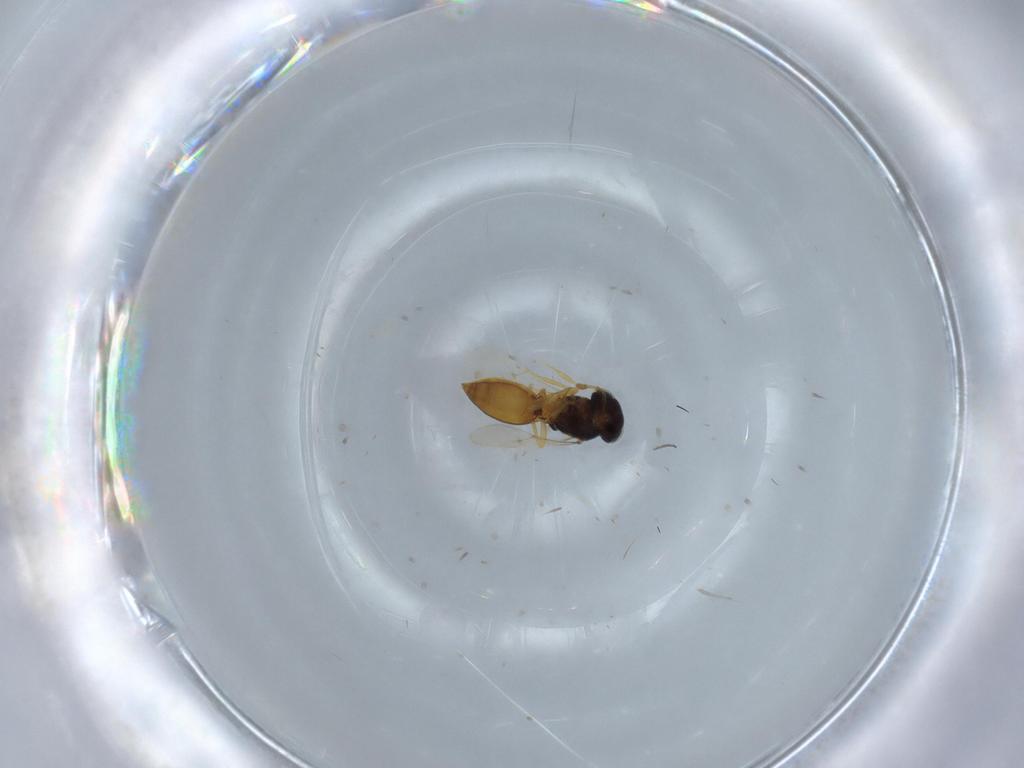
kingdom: Animalia
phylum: Arthropoda
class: Insecta
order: Hymenoptera
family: Scelionidae
